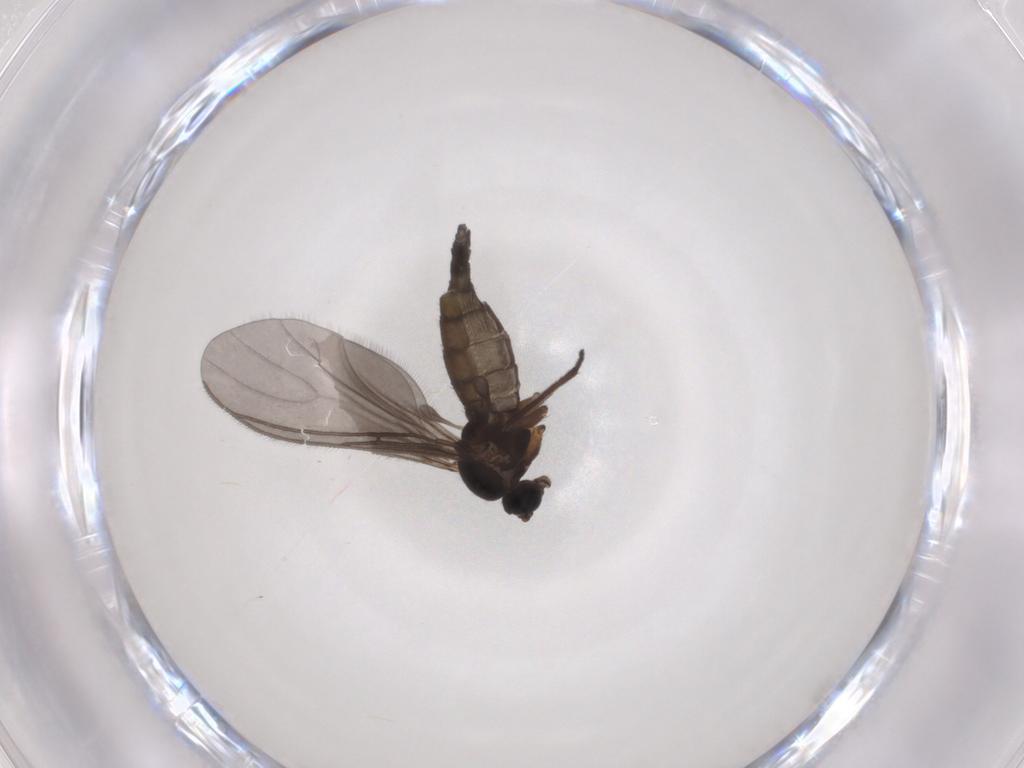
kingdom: Animalia
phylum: Arthropoda
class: Insecta
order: Diptera
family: Sciaridae
